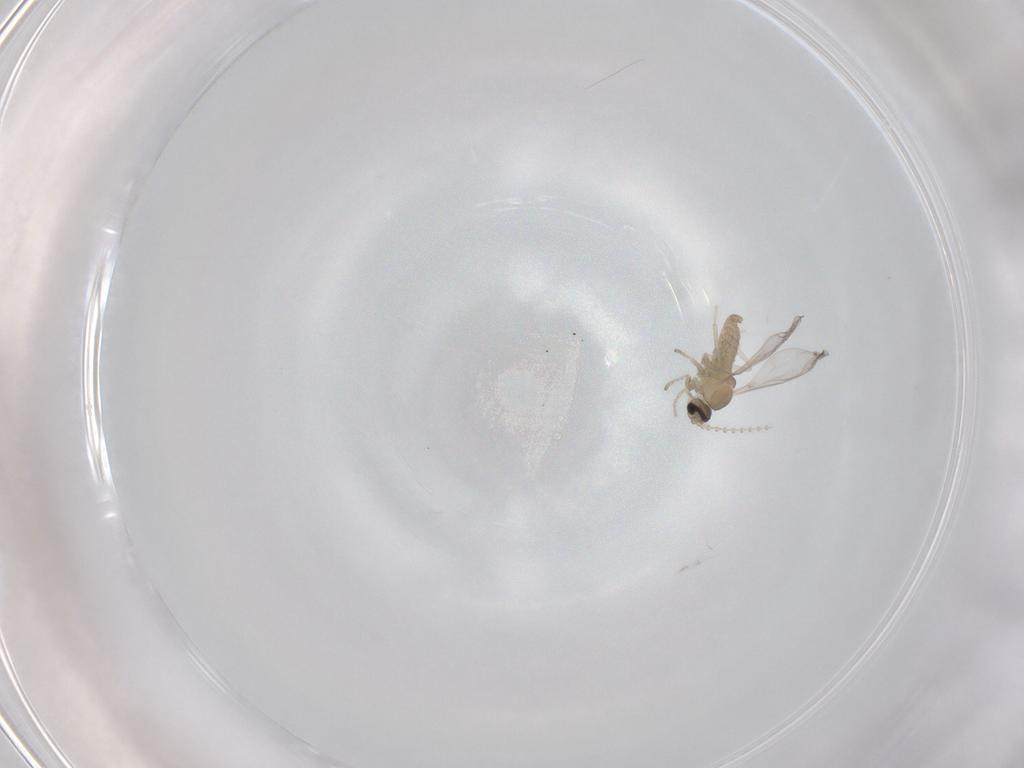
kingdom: Animalia
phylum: Arthropoda
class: Insecta
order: Diptera
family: Cecidomyiidae
